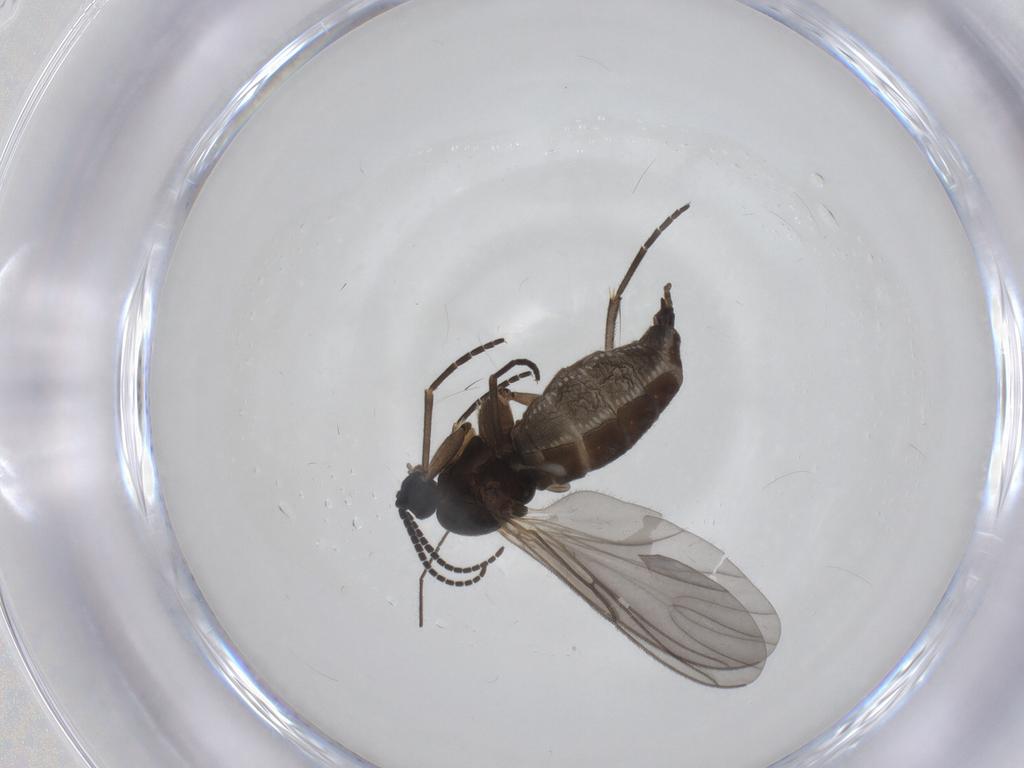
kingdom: Animalia
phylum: Arthropoda
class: Insecta
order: Diptera
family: Sciaridae
